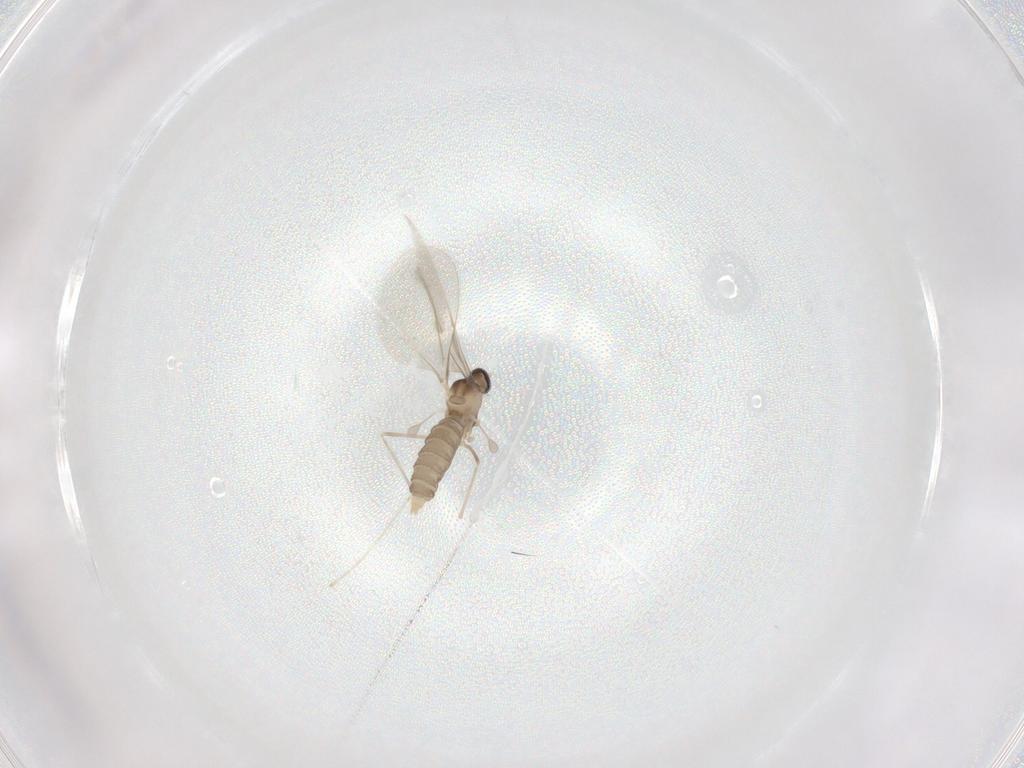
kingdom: Animalia
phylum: Arthropoda
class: Insecta
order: Diptera
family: Cecidomyiidae
